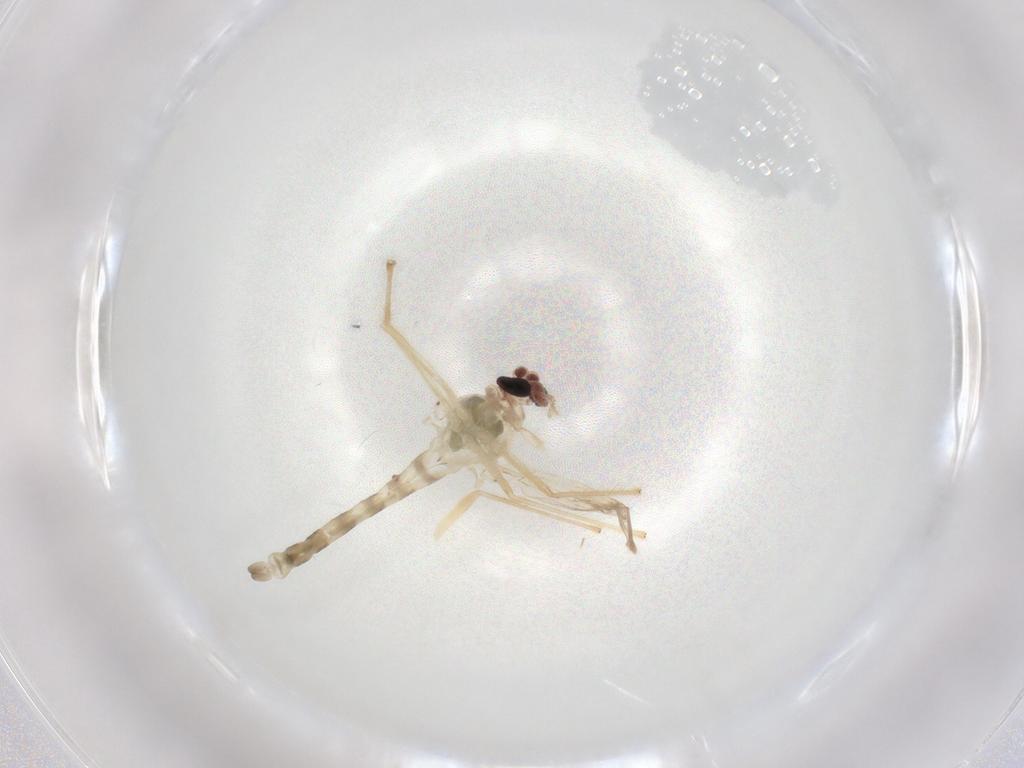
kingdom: Animalia
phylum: Arthropoda
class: Insecta
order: Diptera
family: Chironomidae
